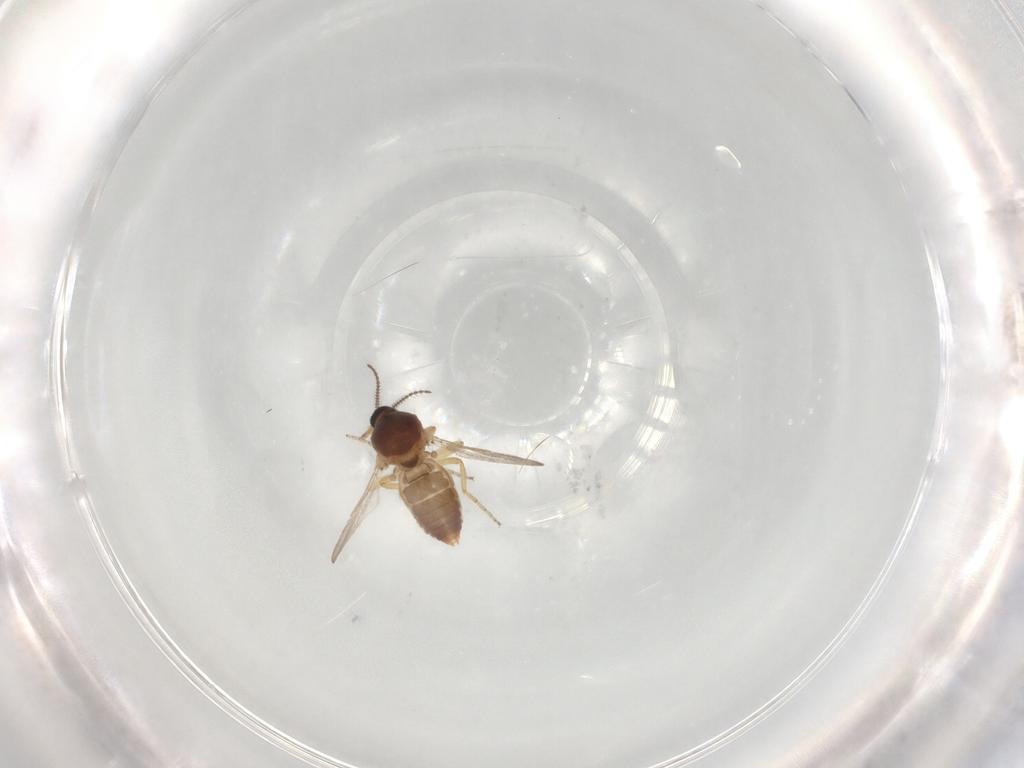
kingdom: Animalia
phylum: Arthropoda
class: Insecta
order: Diptera
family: Ceratopogonidae
